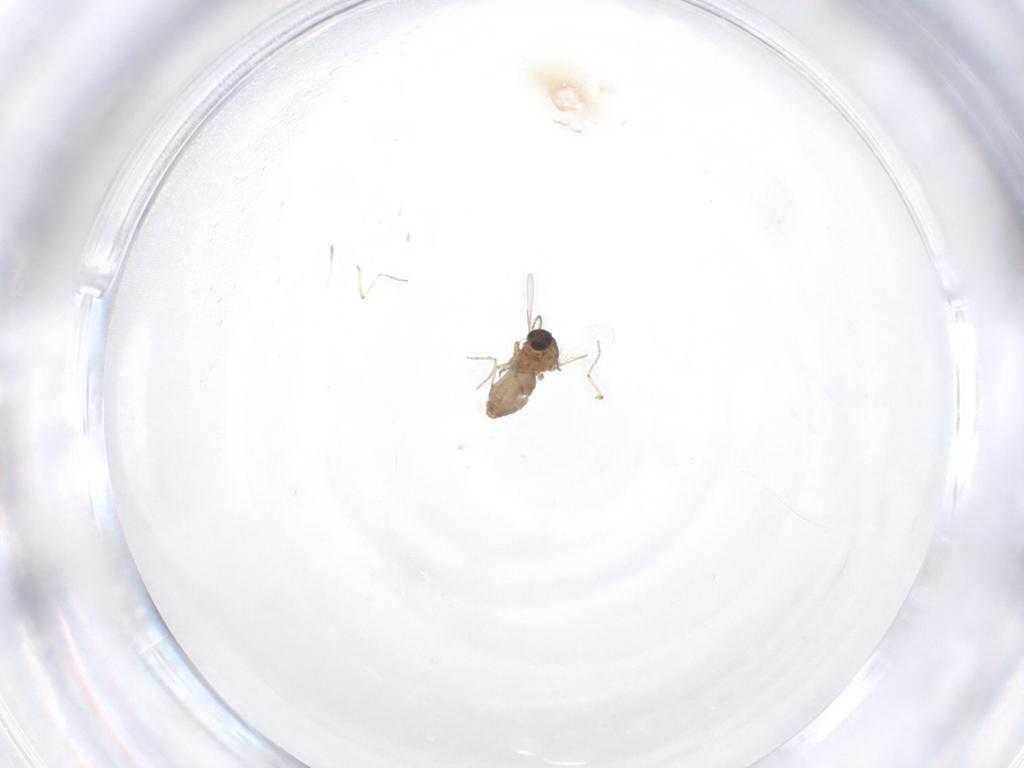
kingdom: Animalia
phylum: Arthropoda
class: Insecta
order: Diptera
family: Ceratopogonidae
